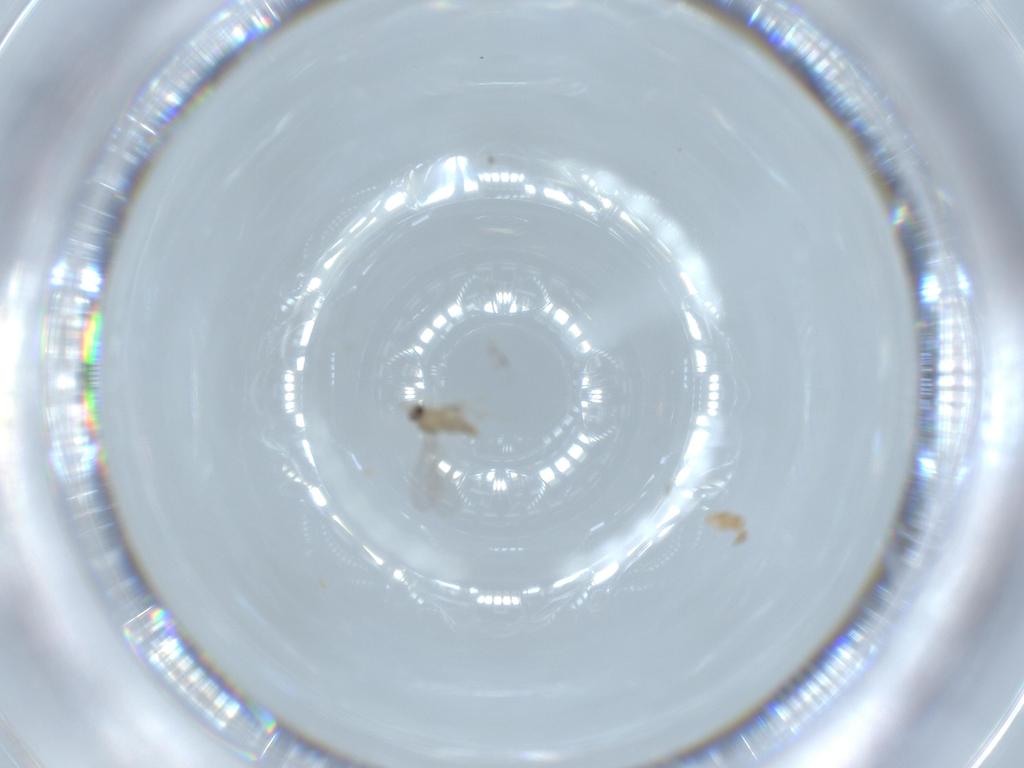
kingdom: Animalia
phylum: Arthropoda
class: Insecta
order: Diptera
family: Cecidomyiidae
